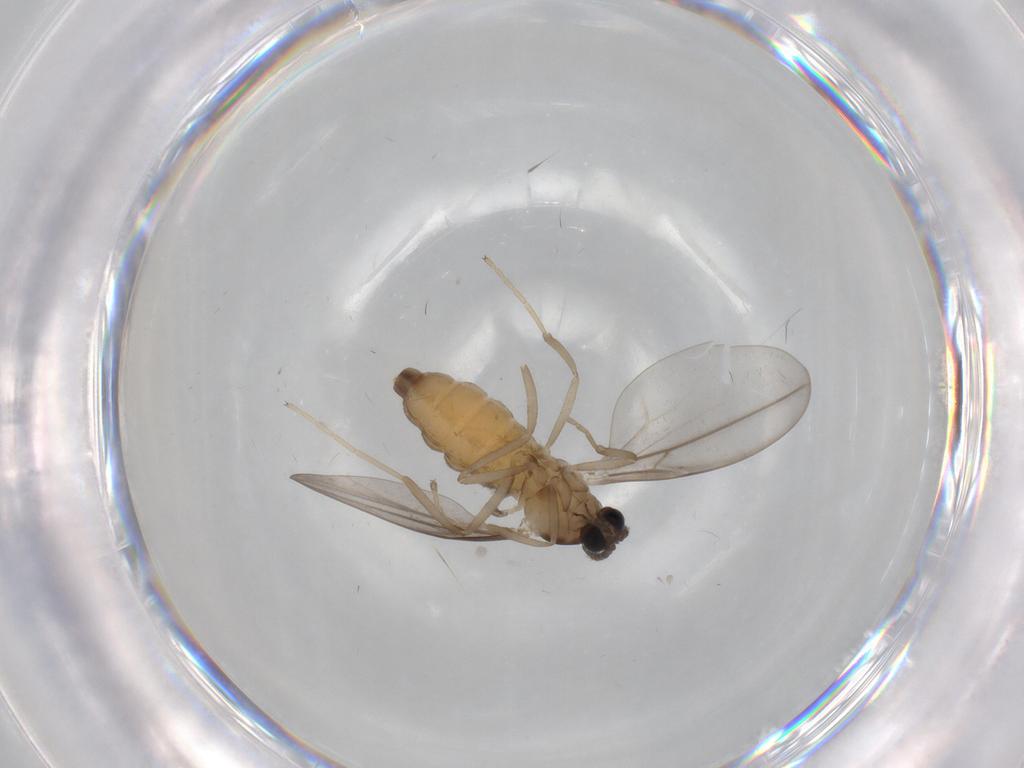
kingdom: Animalia
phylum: Arthropoda
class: Insecta
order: Diptera
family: Cecidomyiidae
